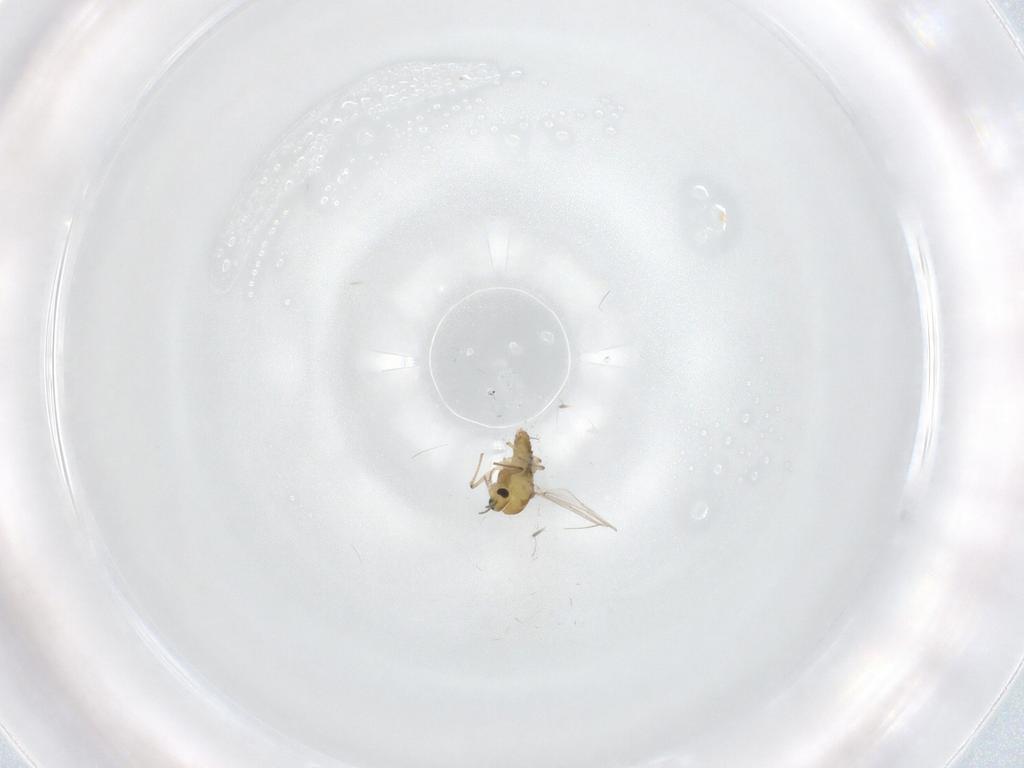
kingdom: Animalia
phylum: Arthropoda
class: Insecta
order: Diptera
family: Chironomidae
